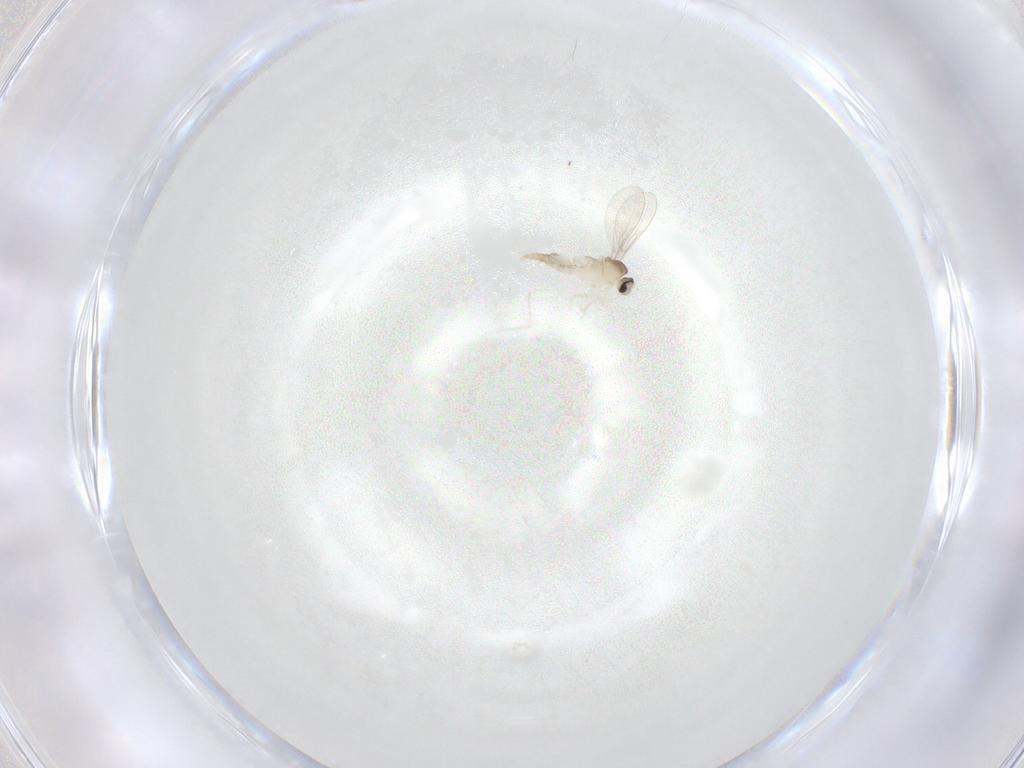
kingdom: Animalia
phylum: Arthropoda
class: Insecta
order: Diptera
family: Cecidomyiidae
